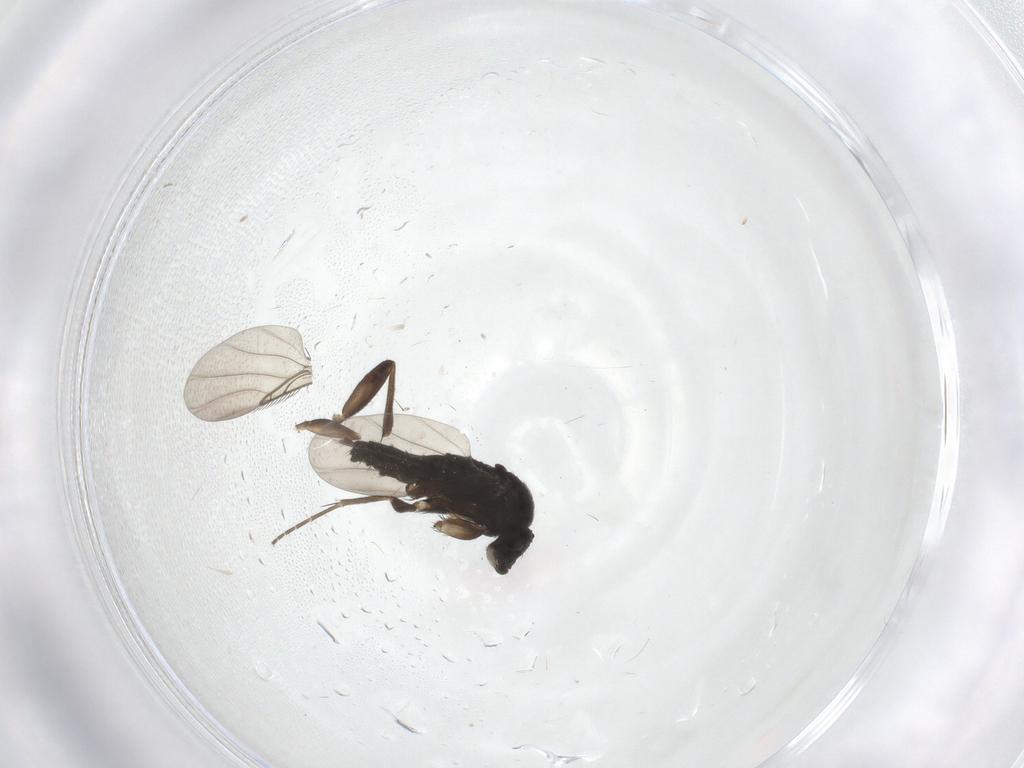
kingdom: Animalia
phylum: Arthropoda
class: Insecta
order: Diptera
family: Phoridae
